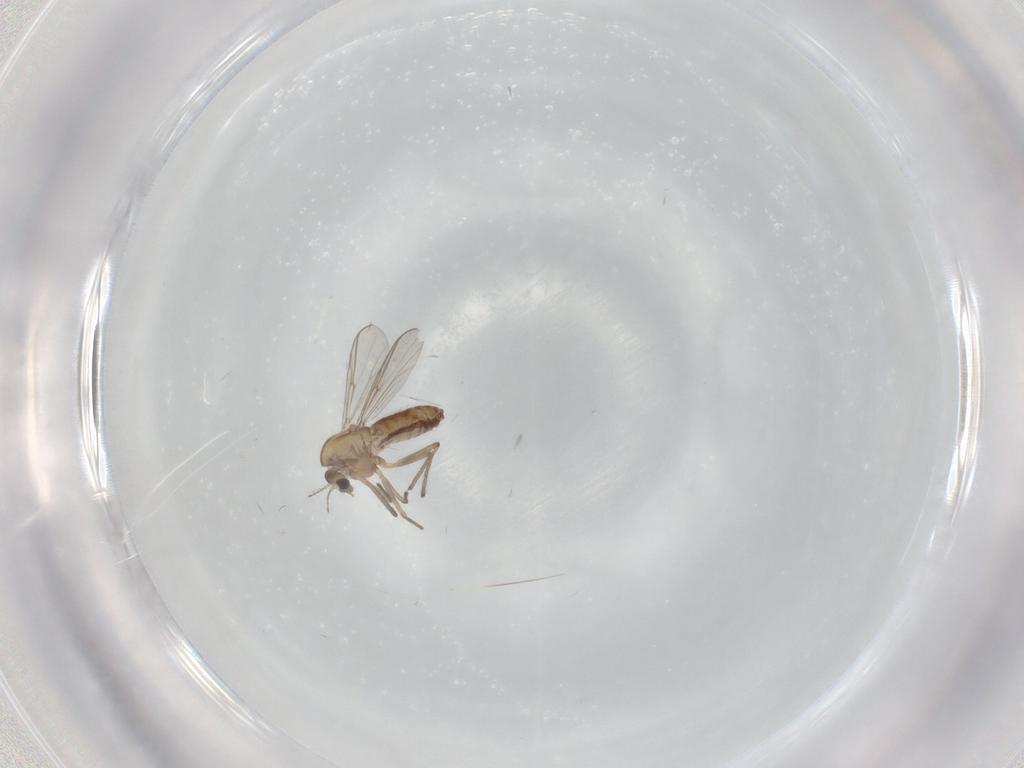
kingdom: Animalia
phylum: Arthropoda
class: Insecta
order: Diptera
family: Chironomidae
